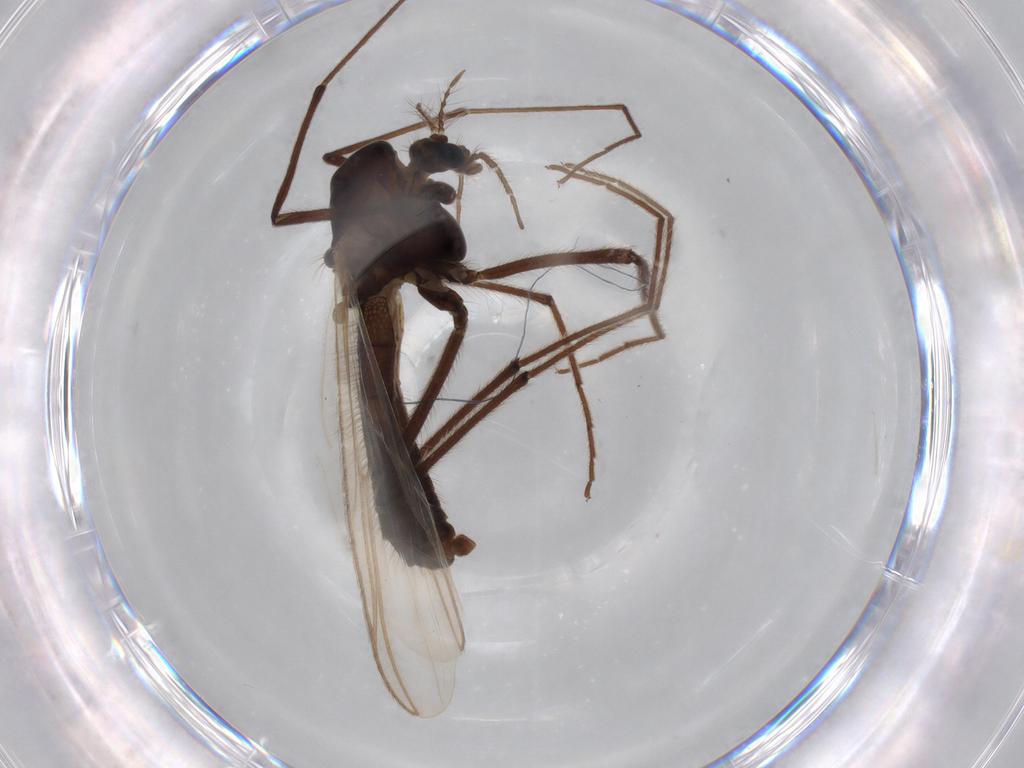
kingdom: Animalia
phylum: Arthropoda
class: Insecta
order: Diptera
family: Chironomidae
